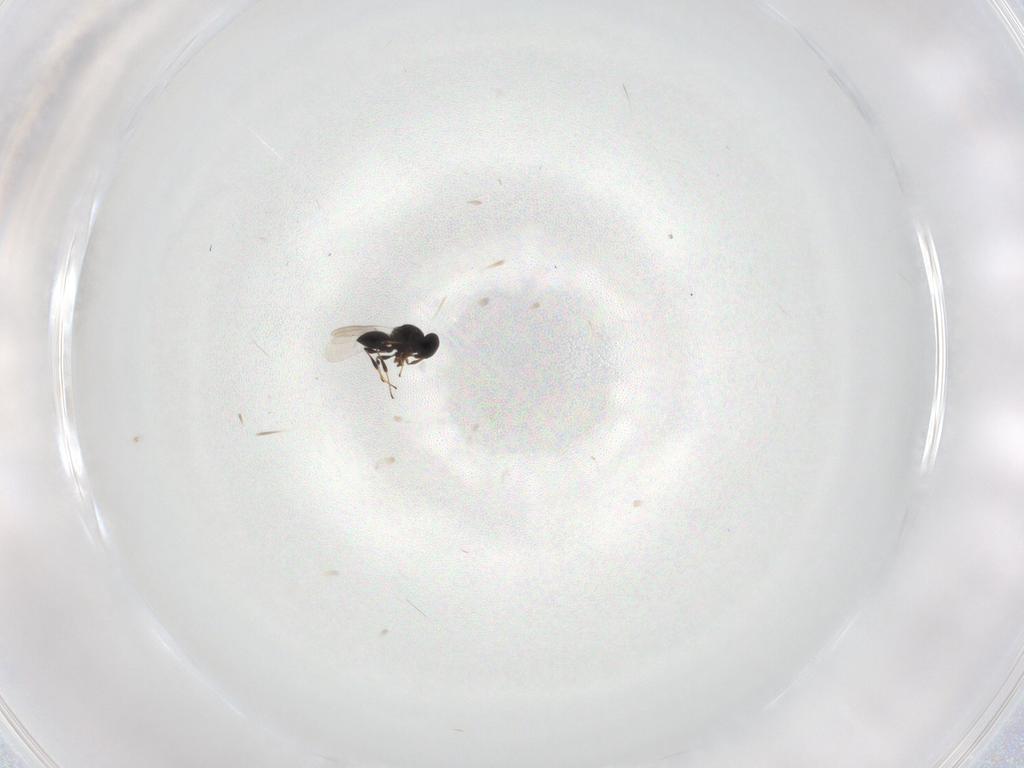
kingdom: Animalia
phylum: Arthropoda
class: Insecta
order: Hymenoptera
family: Platygastridae
